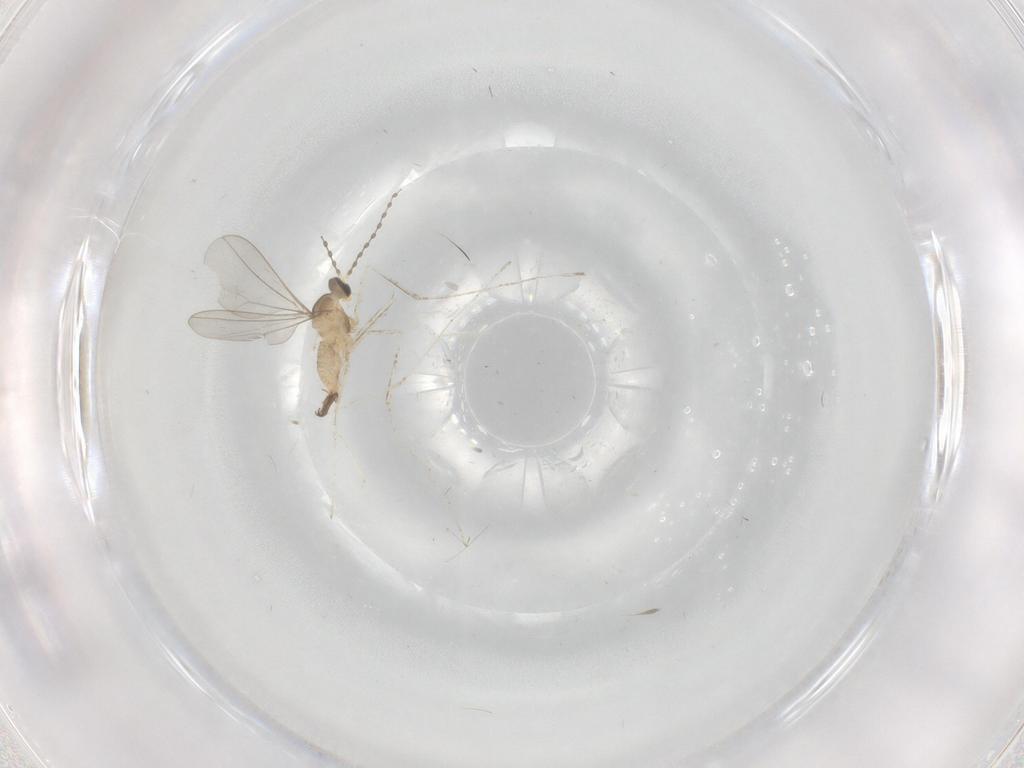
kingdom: Animalia
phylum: Arthropoda
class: Insecta
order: Diptera
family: Cecidomyiidae
